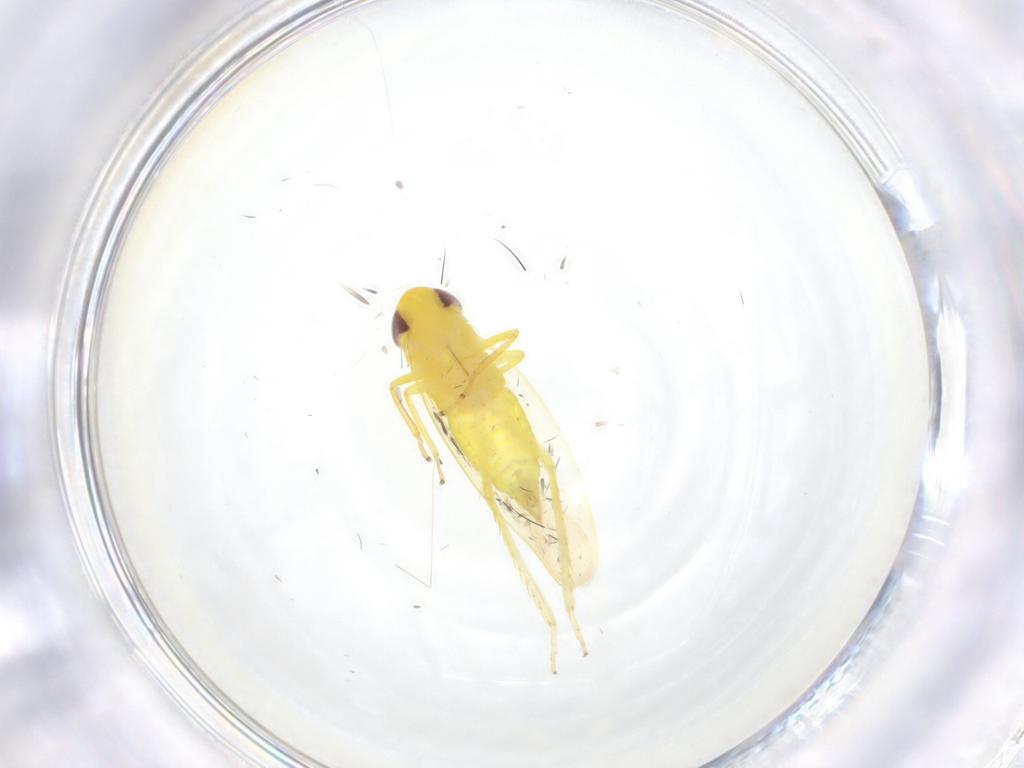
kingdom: Animalia
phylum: Arthropoda
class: Insecta
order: Hemiptera
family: Cicadellidae
